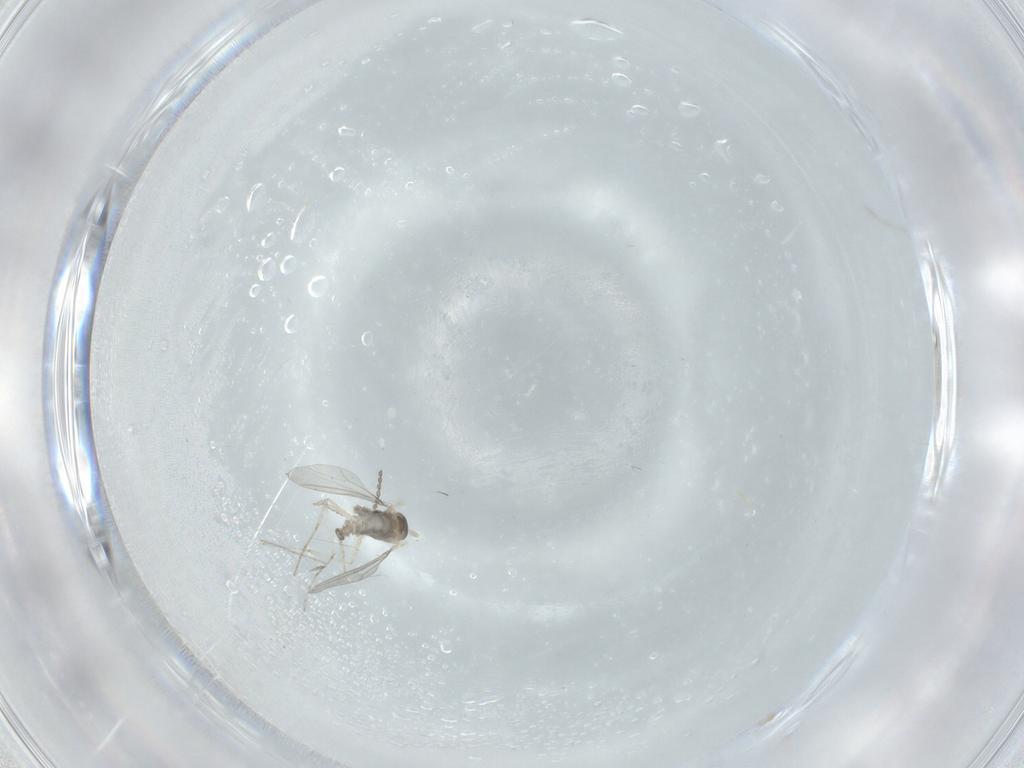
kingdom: Animalia
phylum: Arthropoda
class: Insecta
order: Diptera
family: Cecidomyiidae
